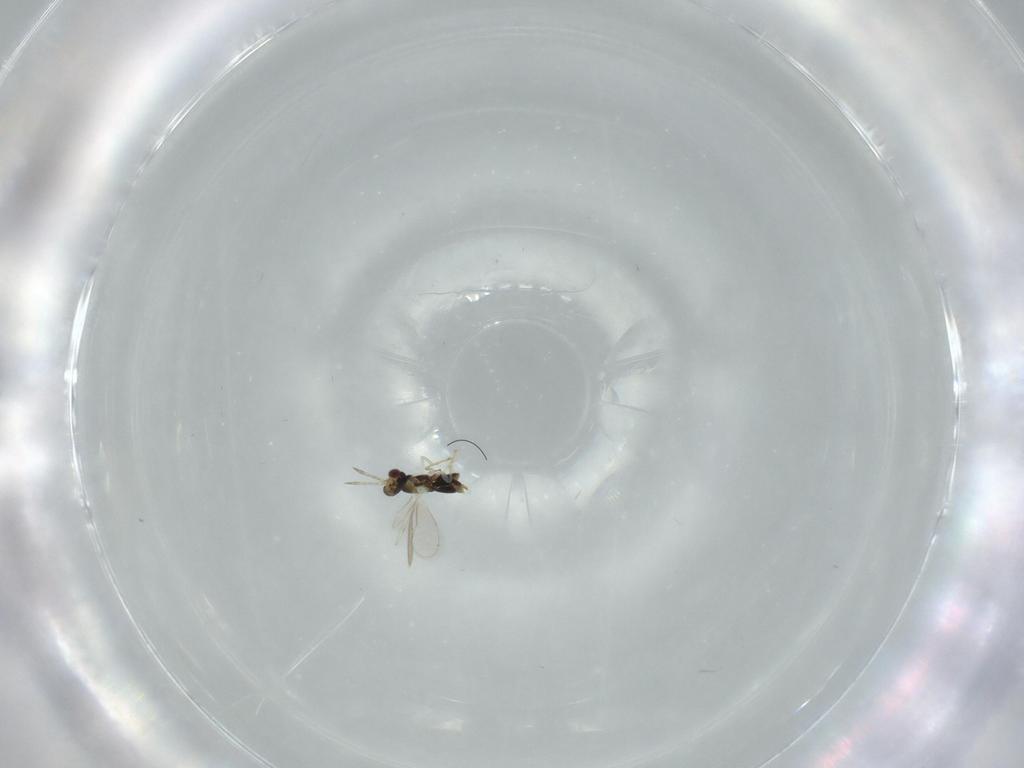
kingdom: Animalia
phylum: Arthropoda
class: Insecta
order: Hymenoptera
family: Aphelinidae
